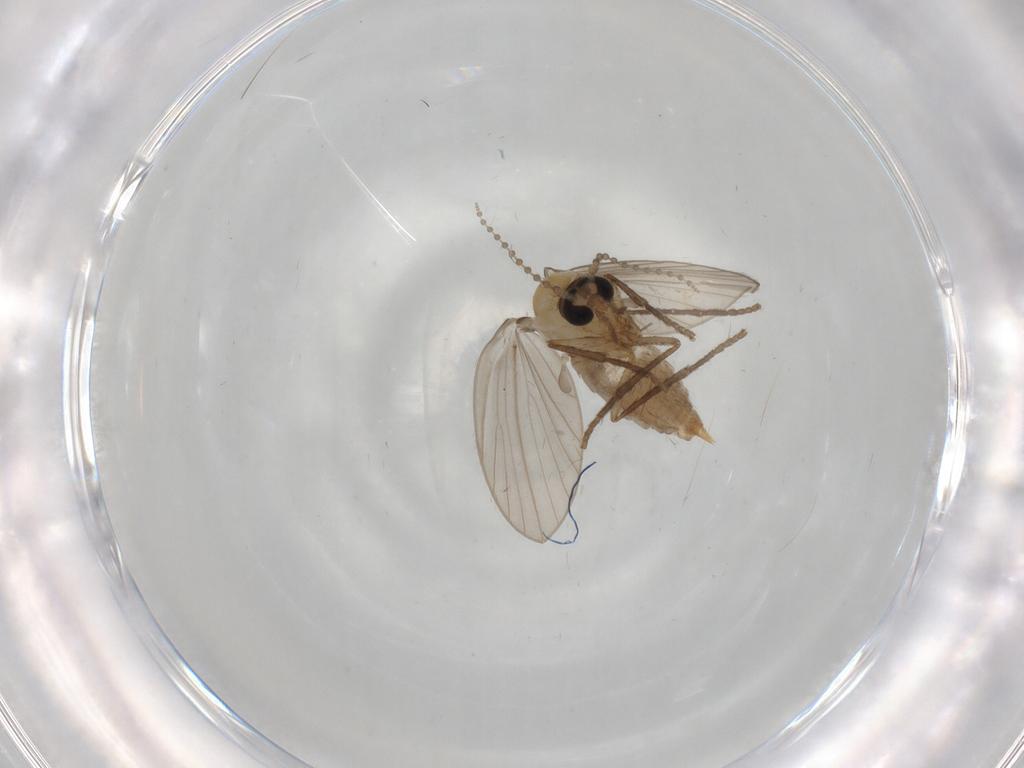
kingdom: Animalia
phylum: Arthropoda
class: Insecta
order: Diptera
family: Psychodidae
